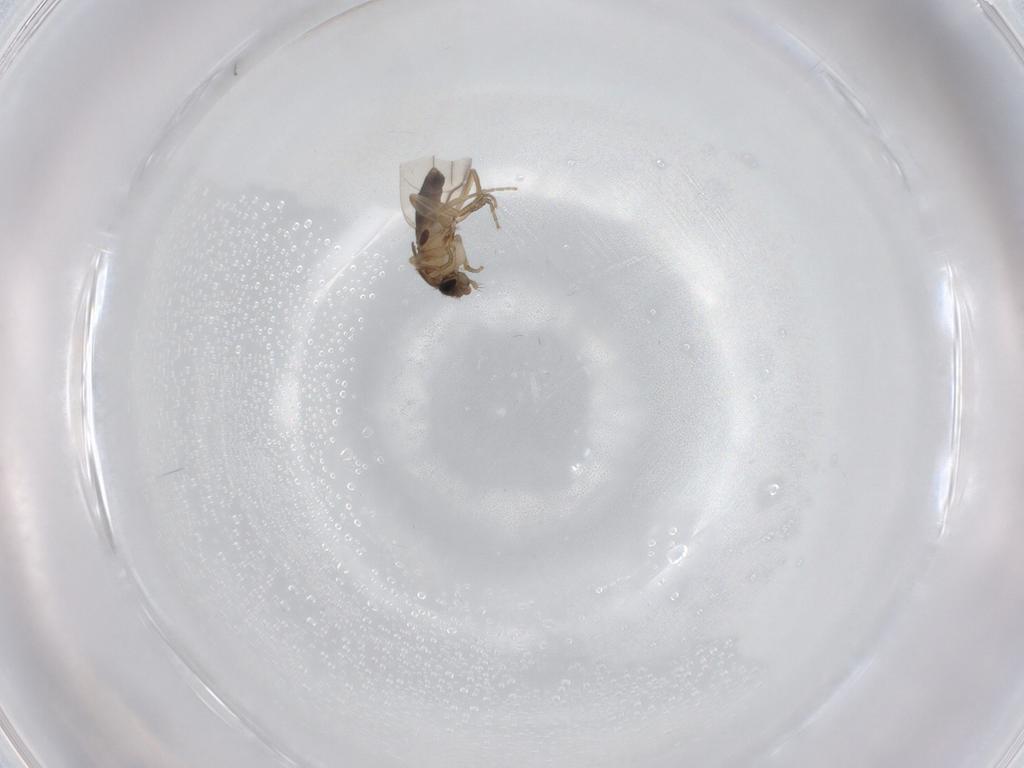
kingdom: Animalia
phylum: Arthropoda
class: Insecta
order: Diptera
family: Phoridae
